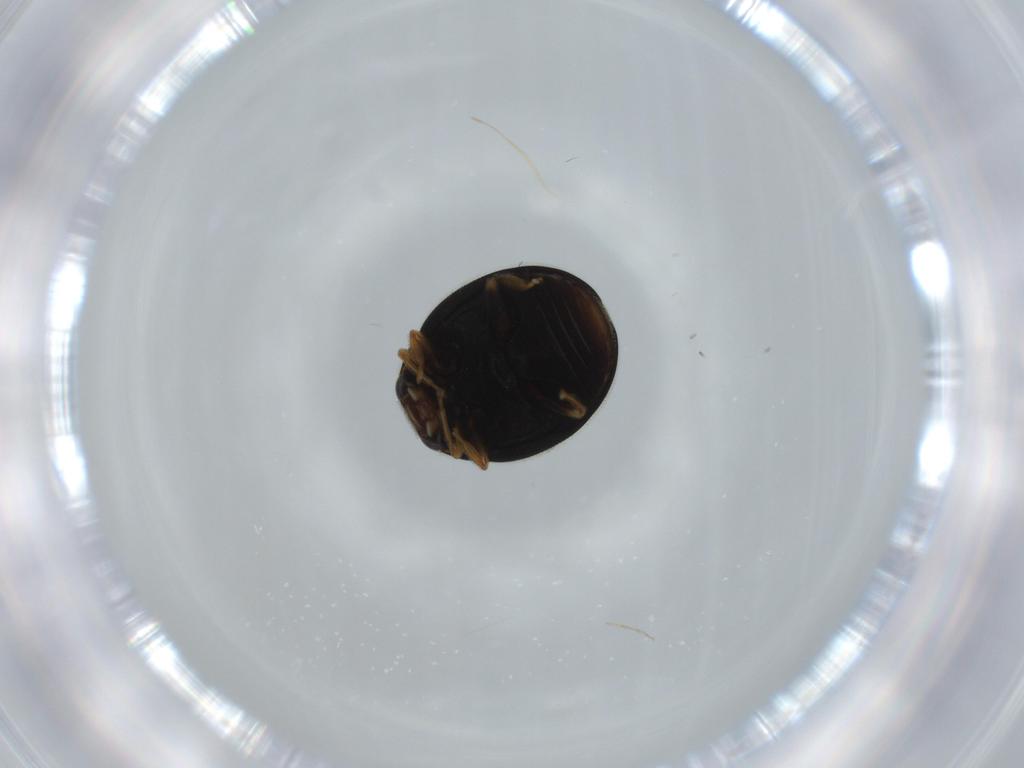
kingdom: Animalia
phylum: Arthropoda
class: Insecta
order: Coleoptera
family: Coccinellidae
